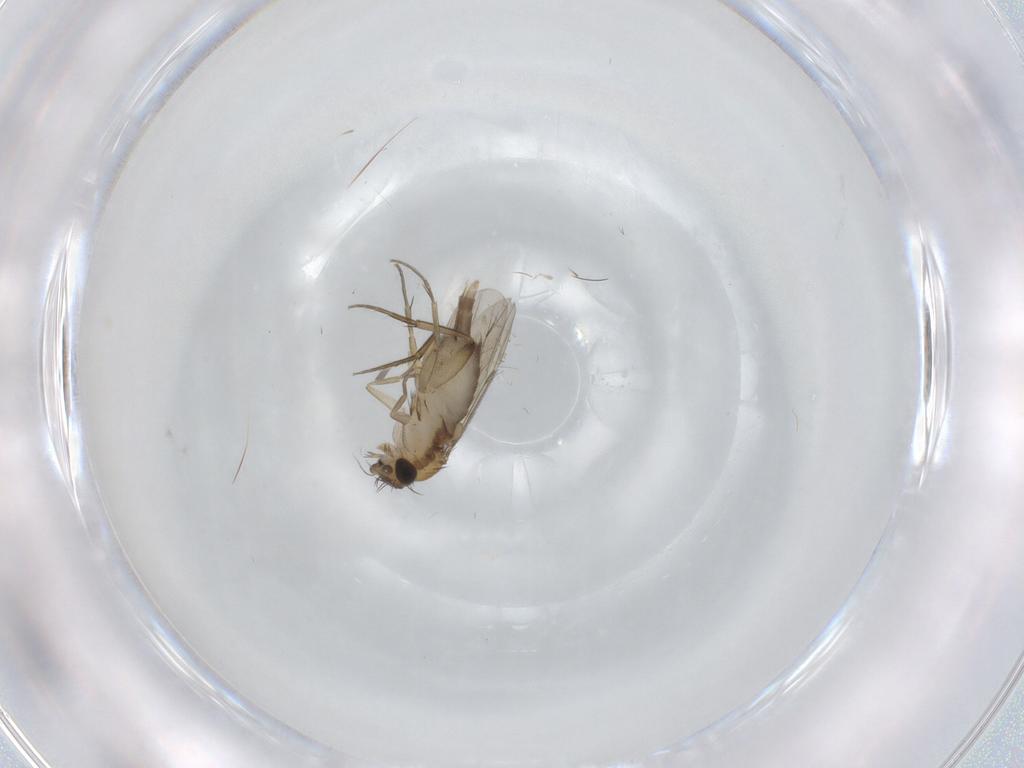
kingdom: Animalia
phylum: Arthropoda
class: Insecta
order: Diptera
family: Phoridae
